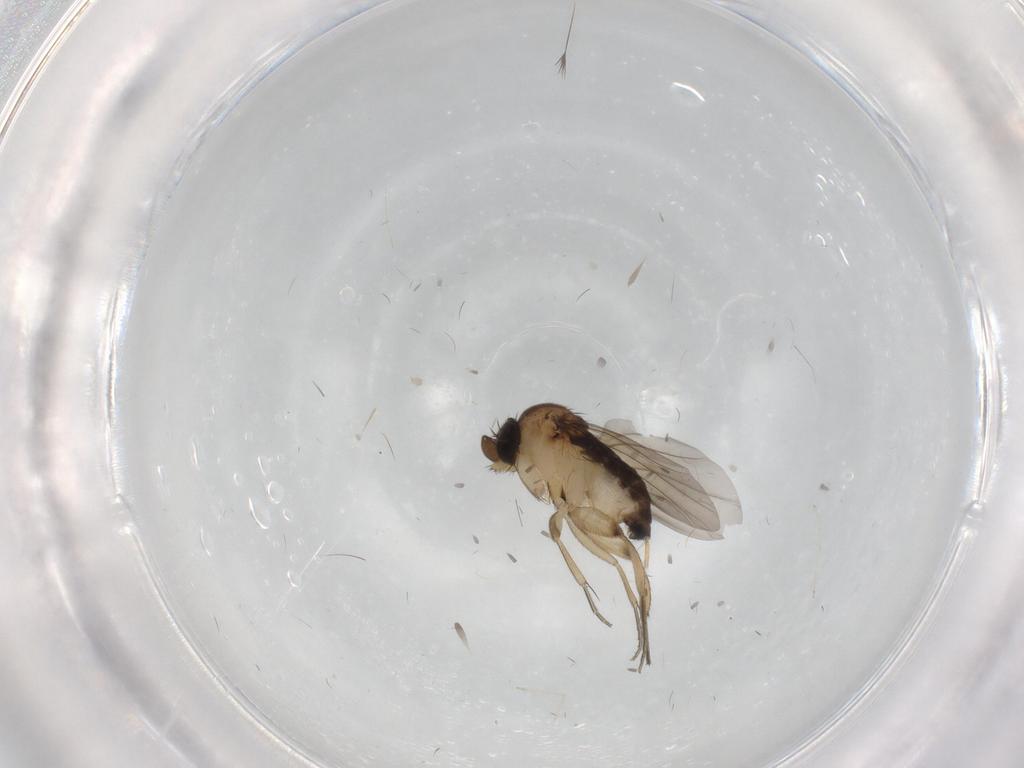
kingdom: Animalia
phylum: Arthropoda
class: Insecta
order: Diptera
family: Phoridae
